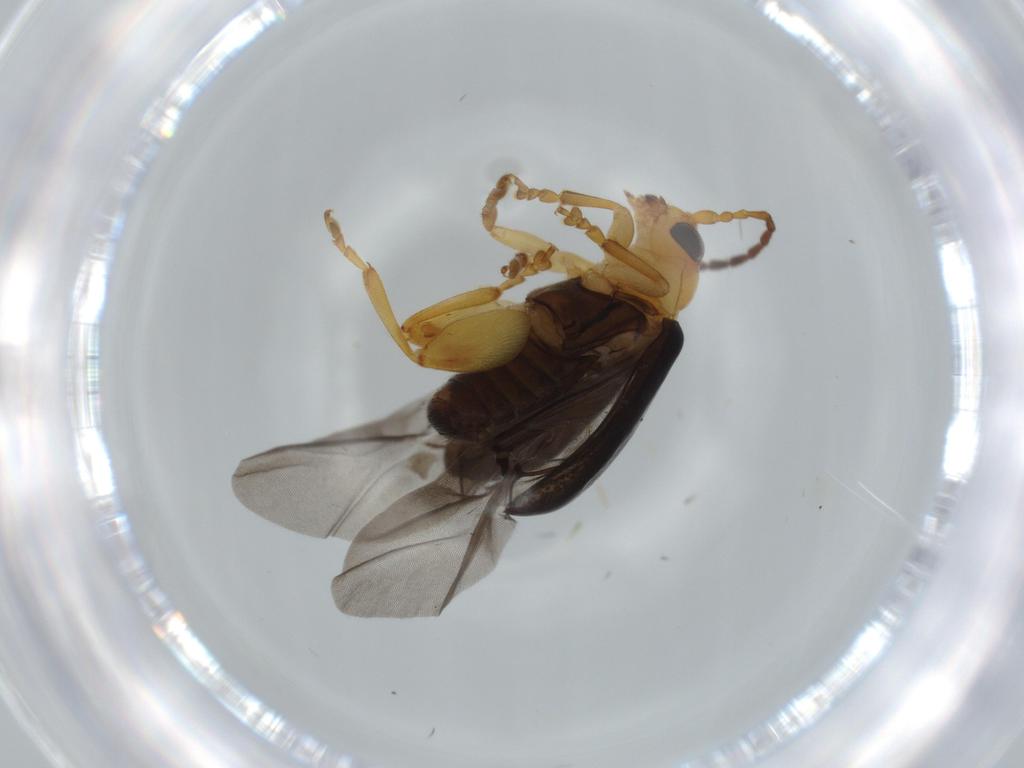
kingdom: Animalia
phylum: Arthropoda
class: Insecta
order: Coleoptera
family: Chrysomelidae
